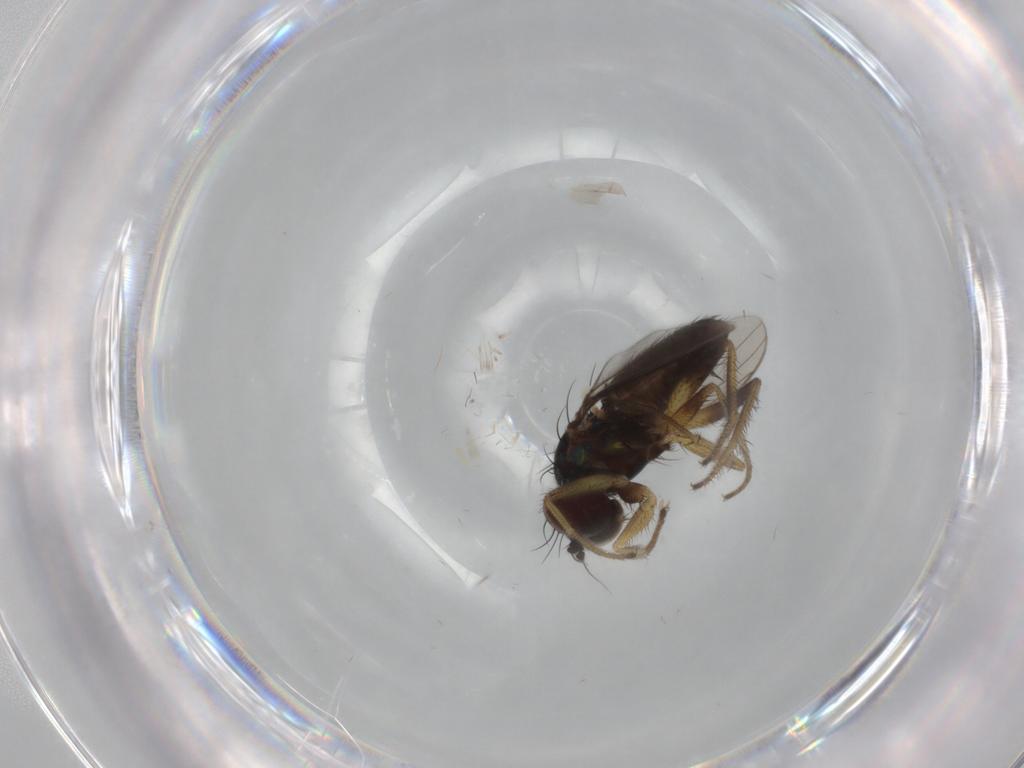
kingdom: Animalia
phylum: Arthropoda
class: Insecta
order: Diptera
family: Dolichopodidae
